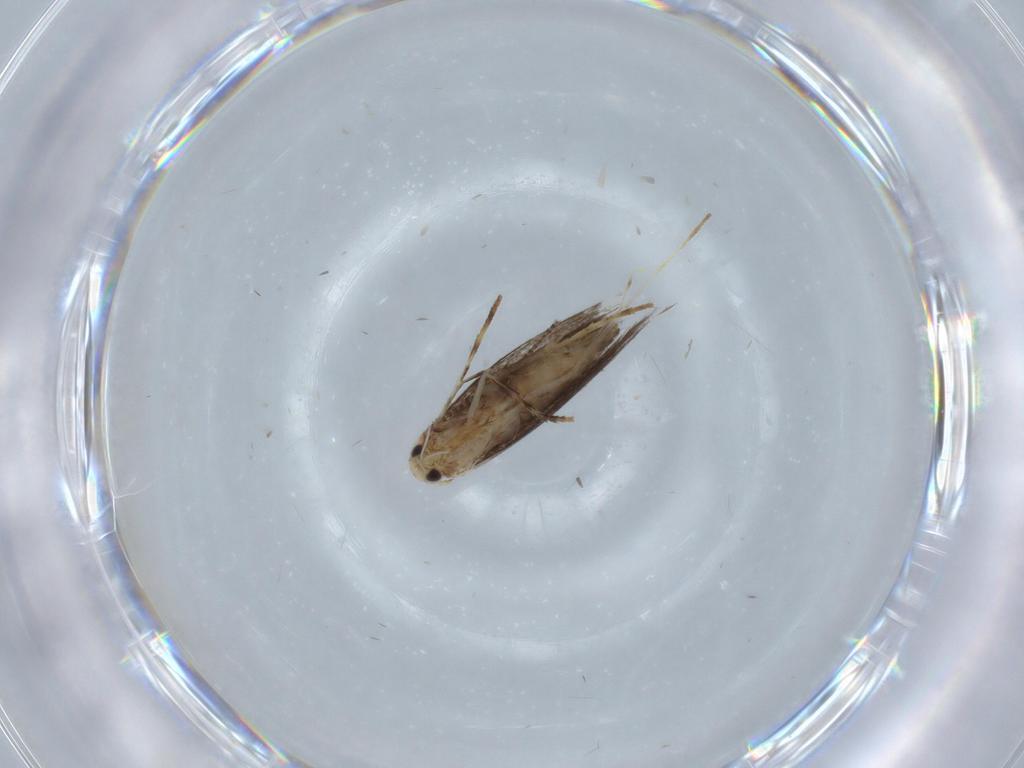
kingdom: Animalia
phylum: Arthropoda
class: Insecta
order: Lepidoptera
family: Gracillariidae
